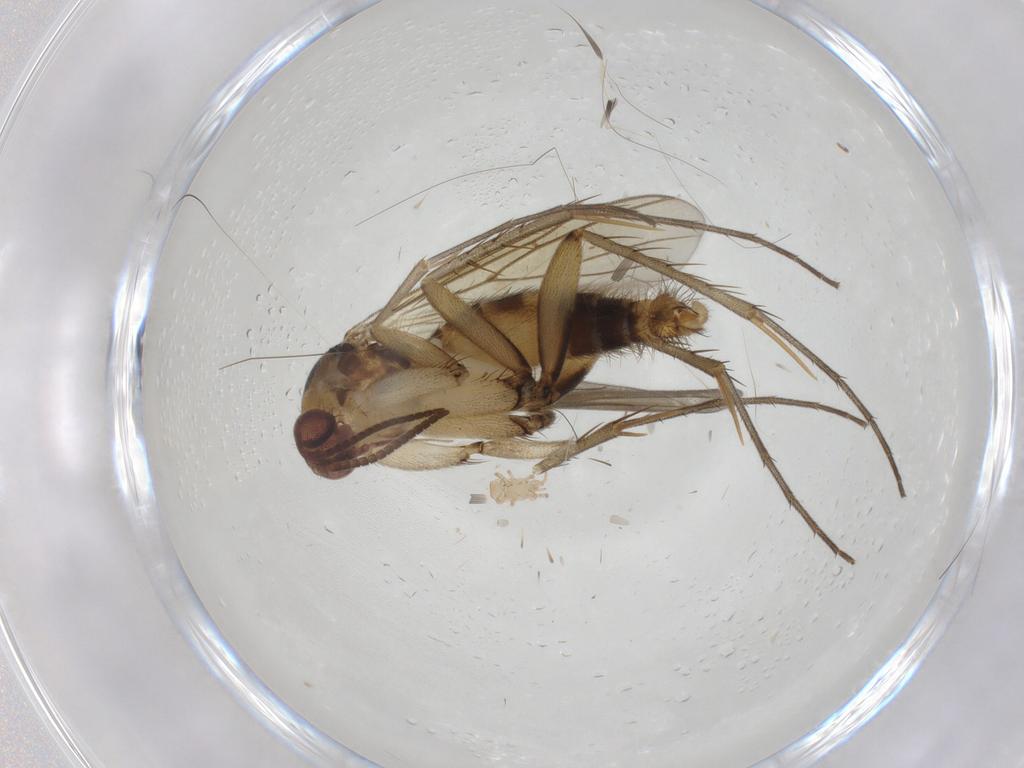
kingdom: Animalia
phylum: Arthropoda
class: Insecta
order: Diptera
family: Mycetophilidae
